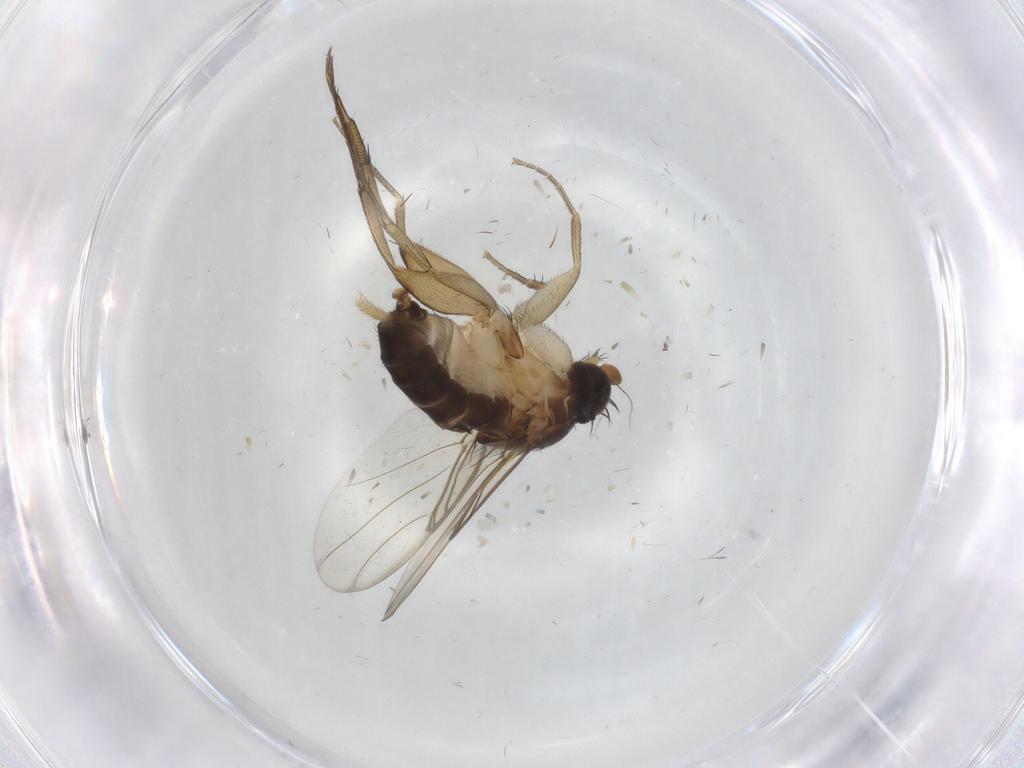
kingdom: Animalia
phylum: Arthropoda
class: Insecta
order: Diptera
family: Phoridae
